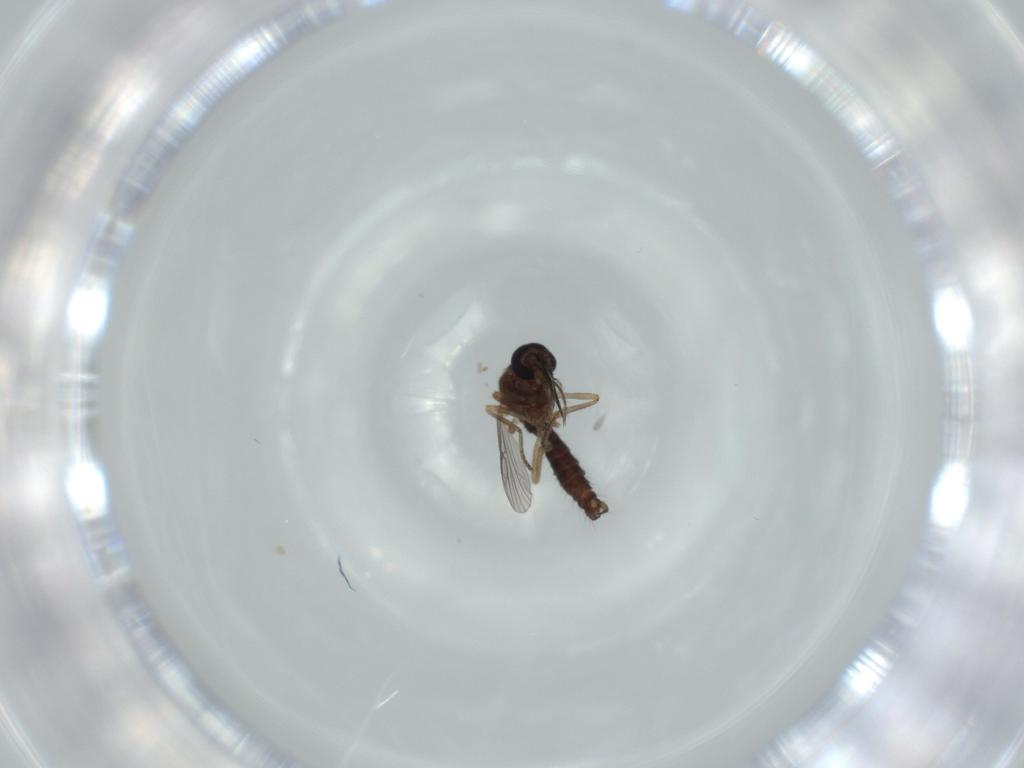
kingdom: Animalia
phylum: Arthropoda
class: Insecta
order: Diptera
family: Ceratopogonidae
